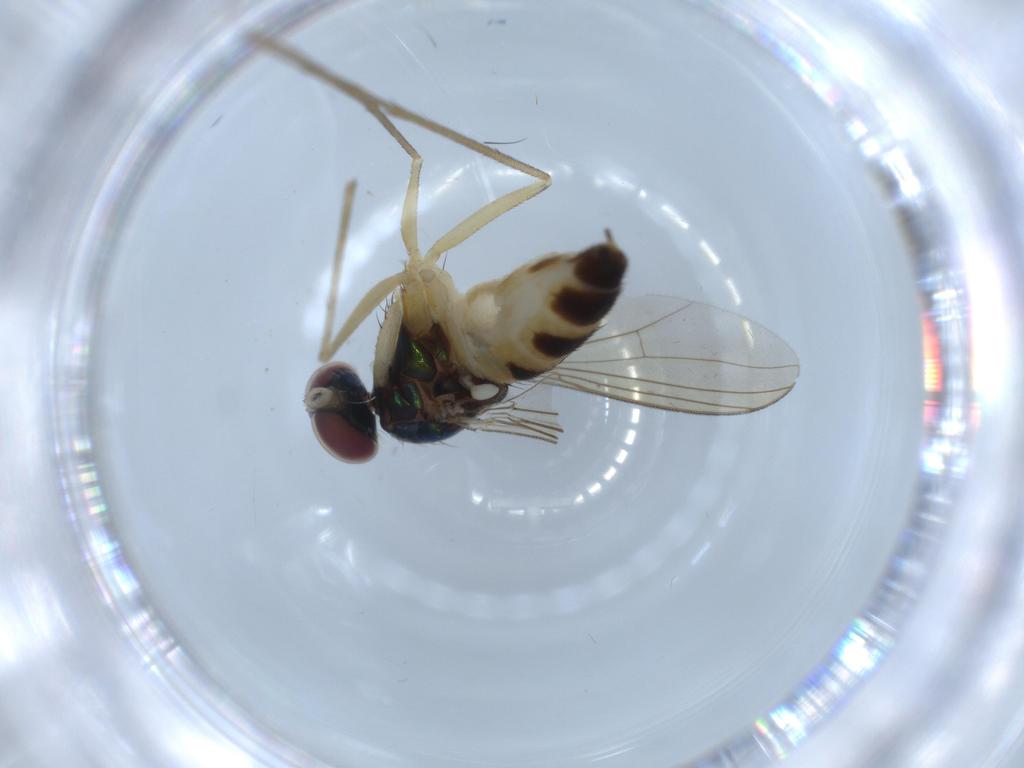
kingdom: Animalia
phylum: Arthropoda
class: Insecta
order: Diptera
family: Dolichopodidae
